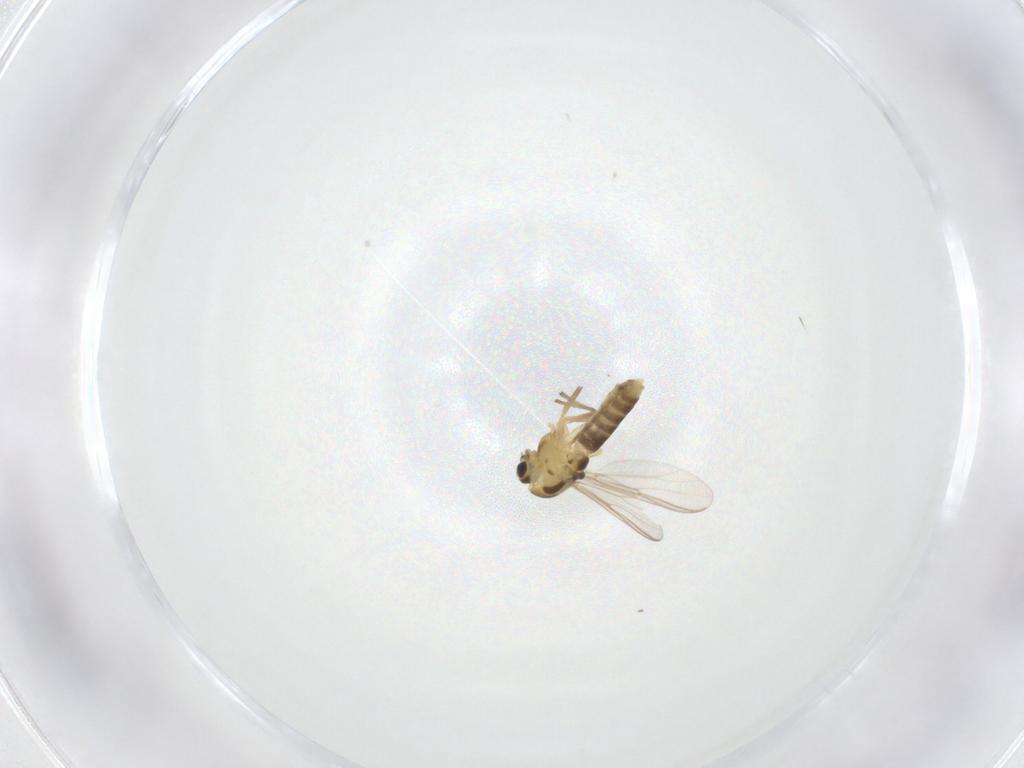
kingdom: Animalia
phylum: Arthropoda
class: Insecta
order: Diptera
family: Chironomidae
